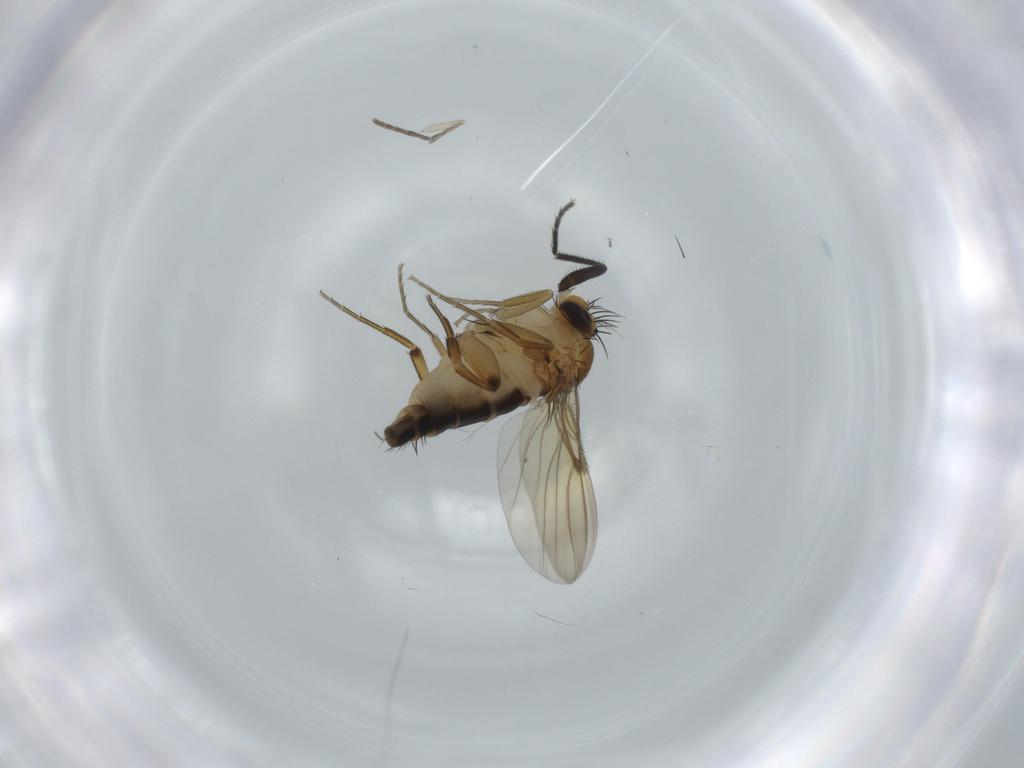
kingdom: Animalia
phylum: Arthropoda
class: Insecta
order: Diptera
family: Milichiidae
